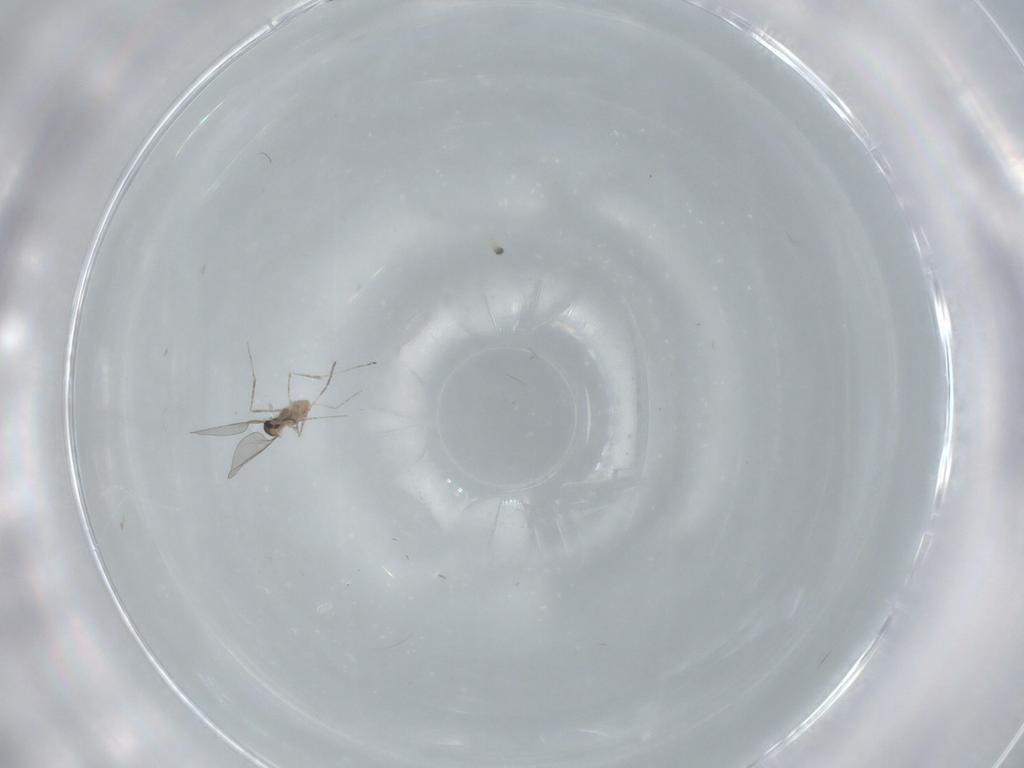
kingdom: Animalia
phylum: Arthropoda
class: Insecta
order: Diptera
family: Cecidomyiidae
